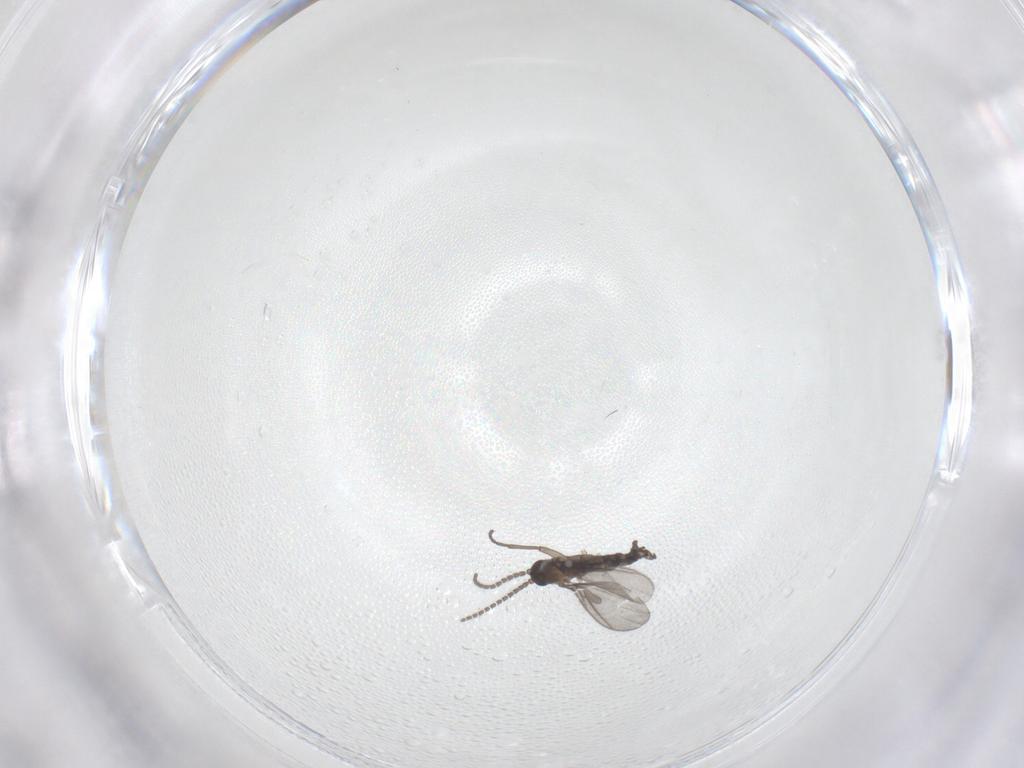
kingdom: Animalia
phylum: Arthropoda
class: Insecta
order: Diptera
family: Sciaridae
